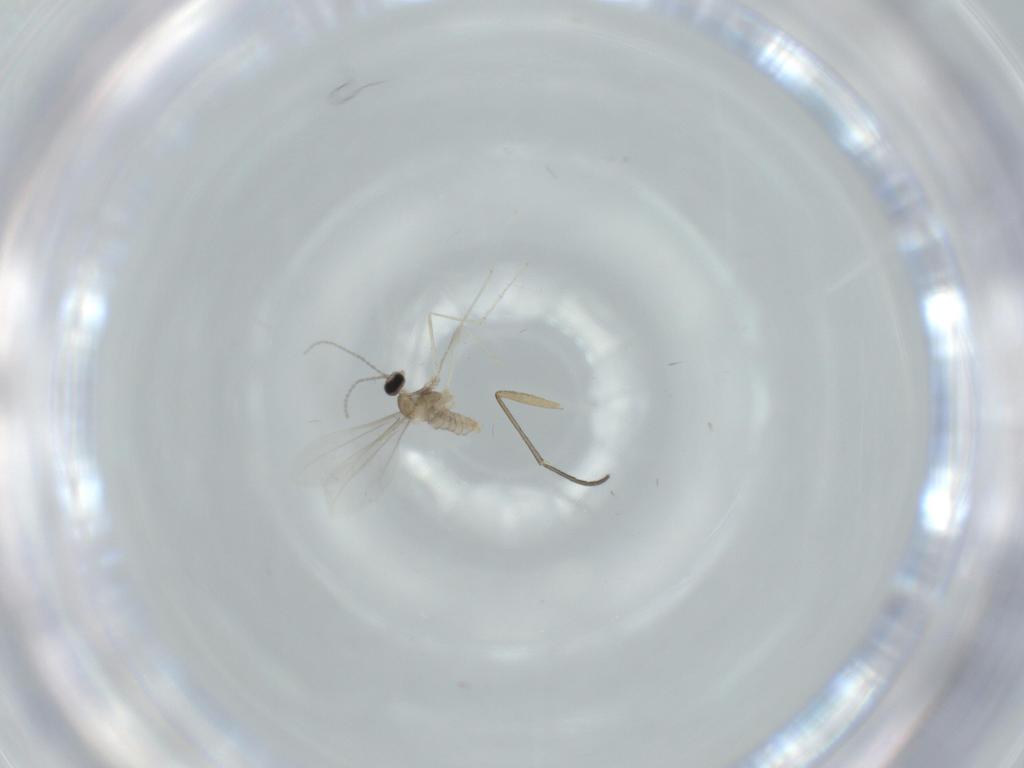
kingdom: Animalia
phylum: Arthropoda
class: Insecta
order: Diptera
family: Cecidomyiidae
